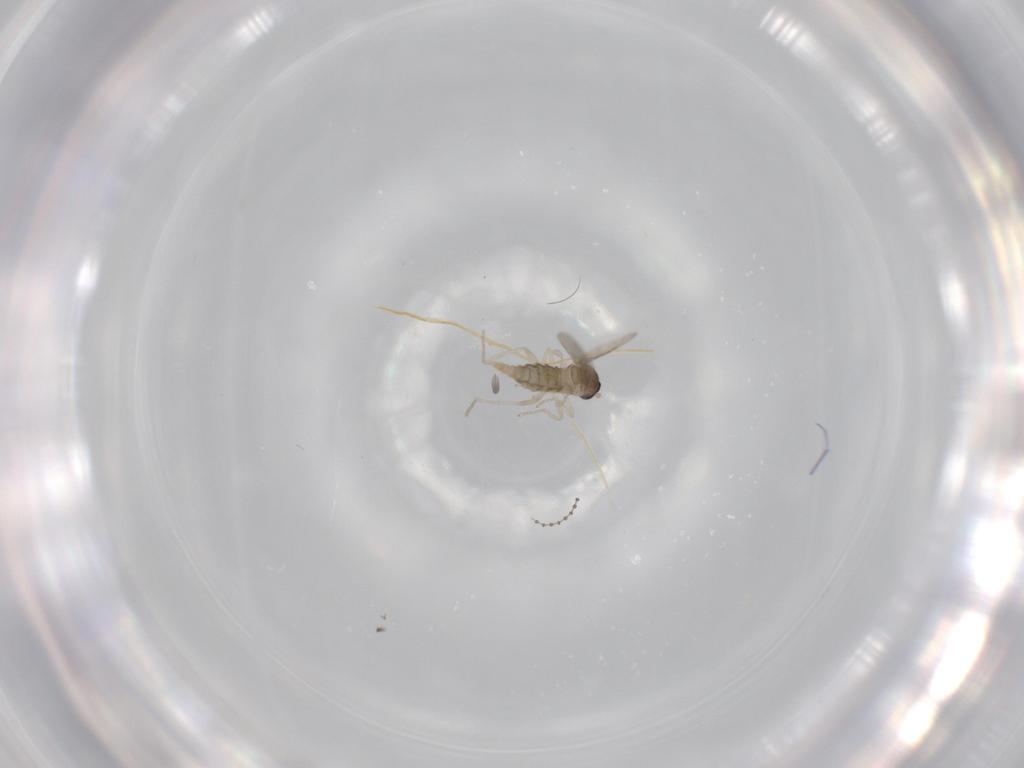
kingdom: Animalia
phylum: Arthropoda
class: Insecta
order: Diptera
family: Cecidomyiidae
